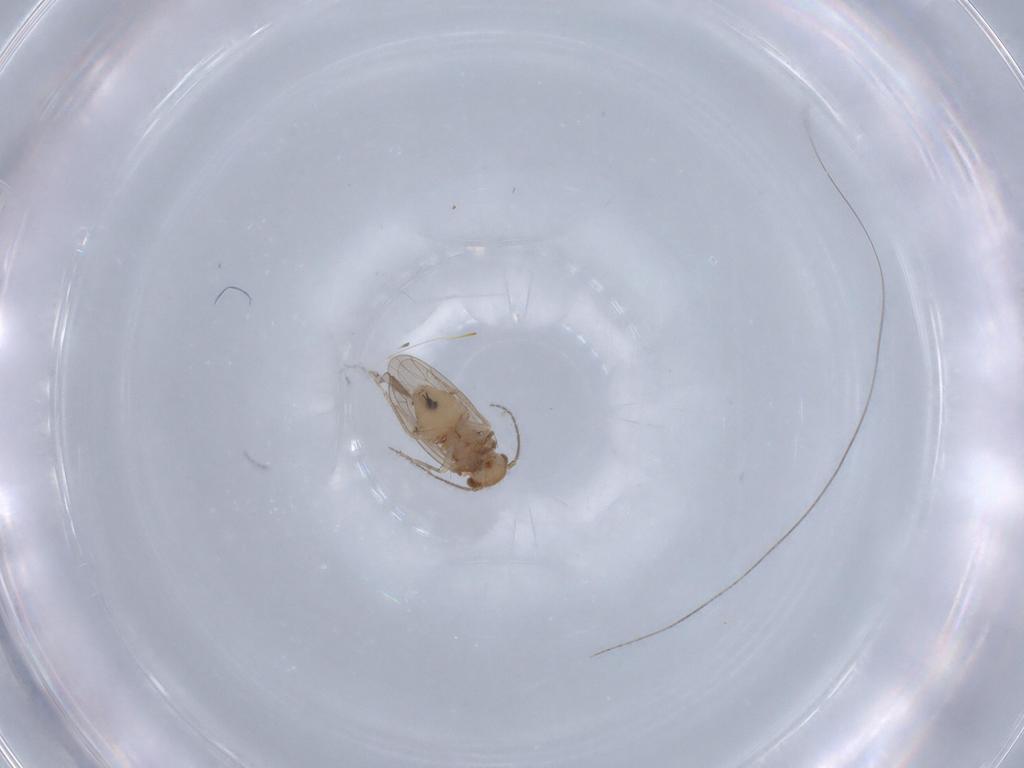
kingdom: Animalia
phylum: Arthropoda
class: Insecta
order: Psocodea
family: Ectopsocidae
